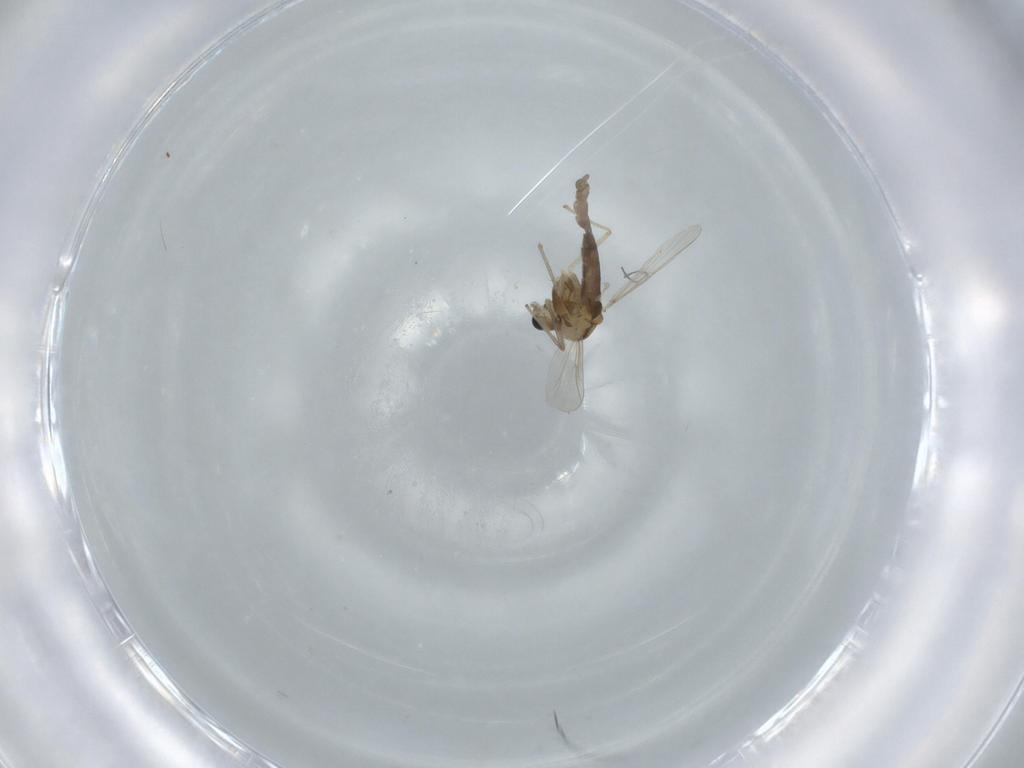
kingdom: Animalia
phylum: Arthropoda
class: Insecta
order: Diptera
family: Chironomidae
